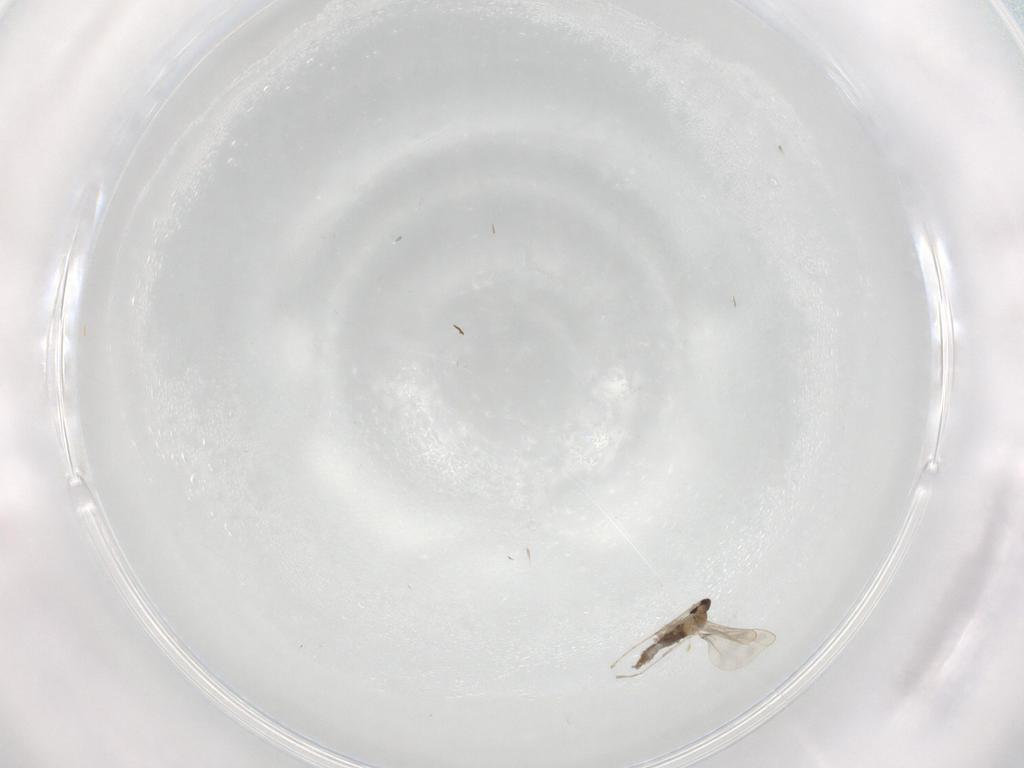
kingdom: Animalia
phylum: Arthropoda
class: Insecta
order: Diptera
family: Cecidomyiidae
